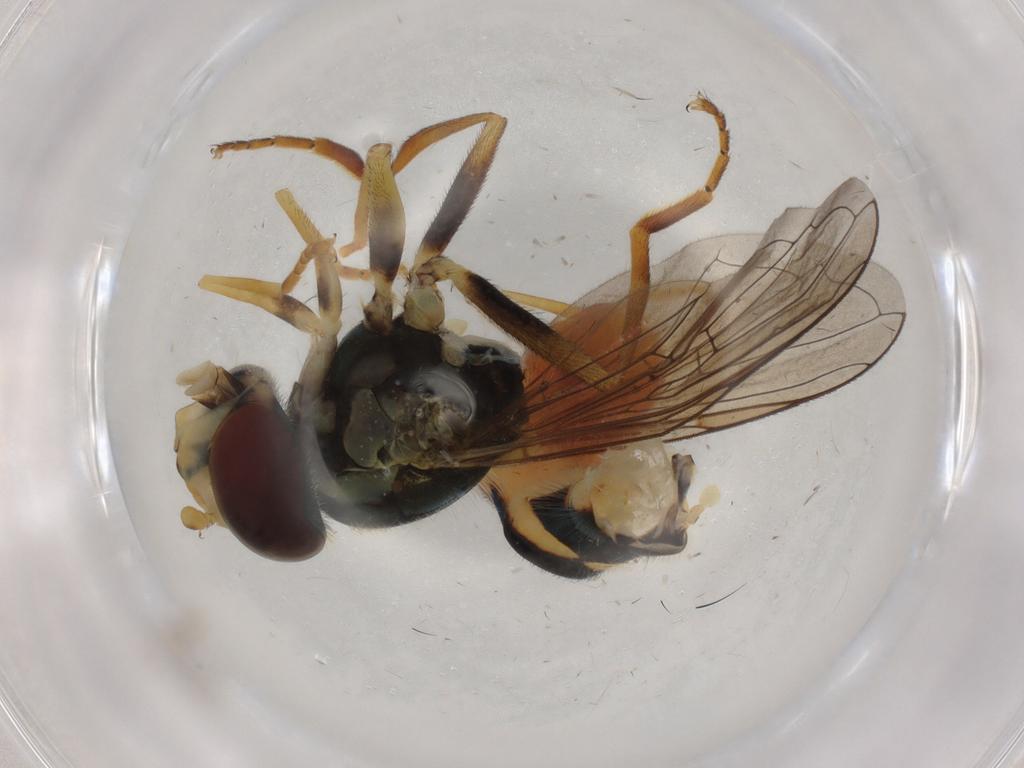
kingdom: Animalia
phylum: Arthropoda
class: Insecta
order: Diptera
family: Syrphidae
